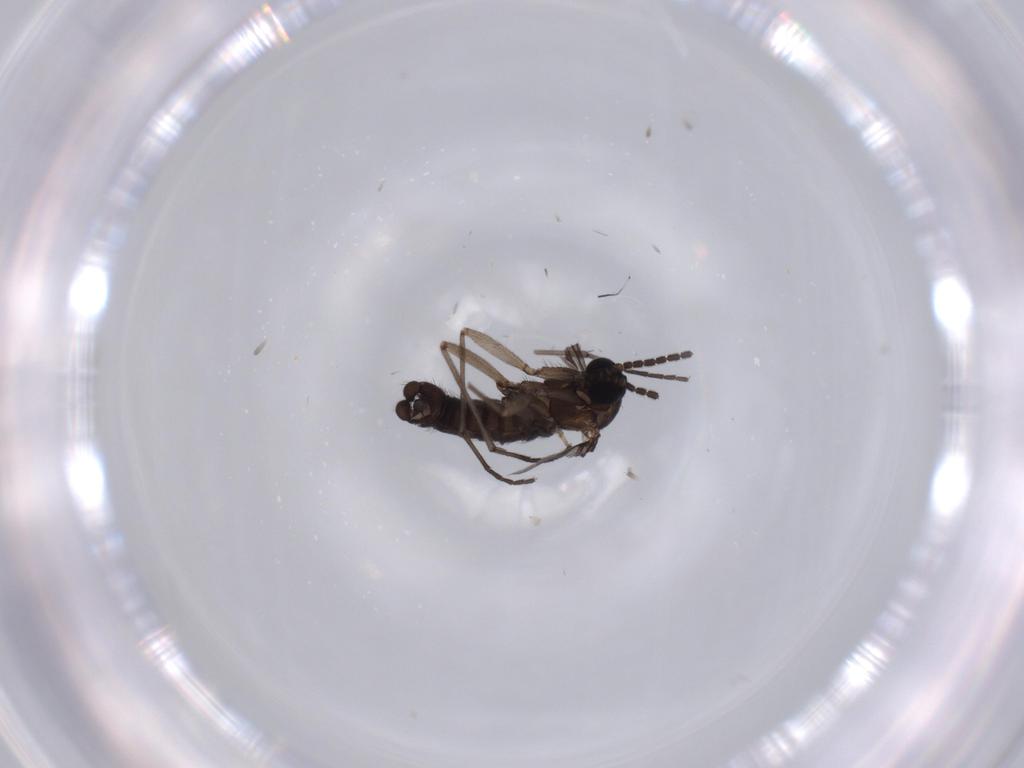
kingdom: Animalia
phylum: Arthropoda
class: Insecta
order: Diptera
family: Sciaridae
